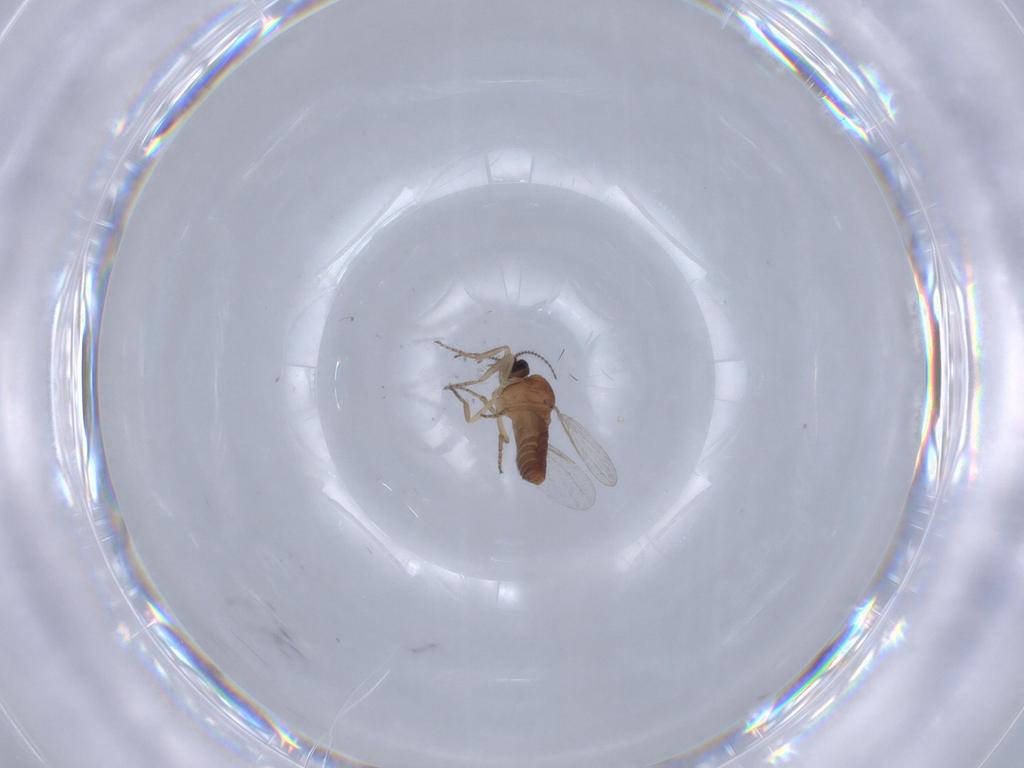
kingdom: Animalia
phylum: Arthropoda
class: Insecta
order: Diptera
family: Ceratopogonidae
